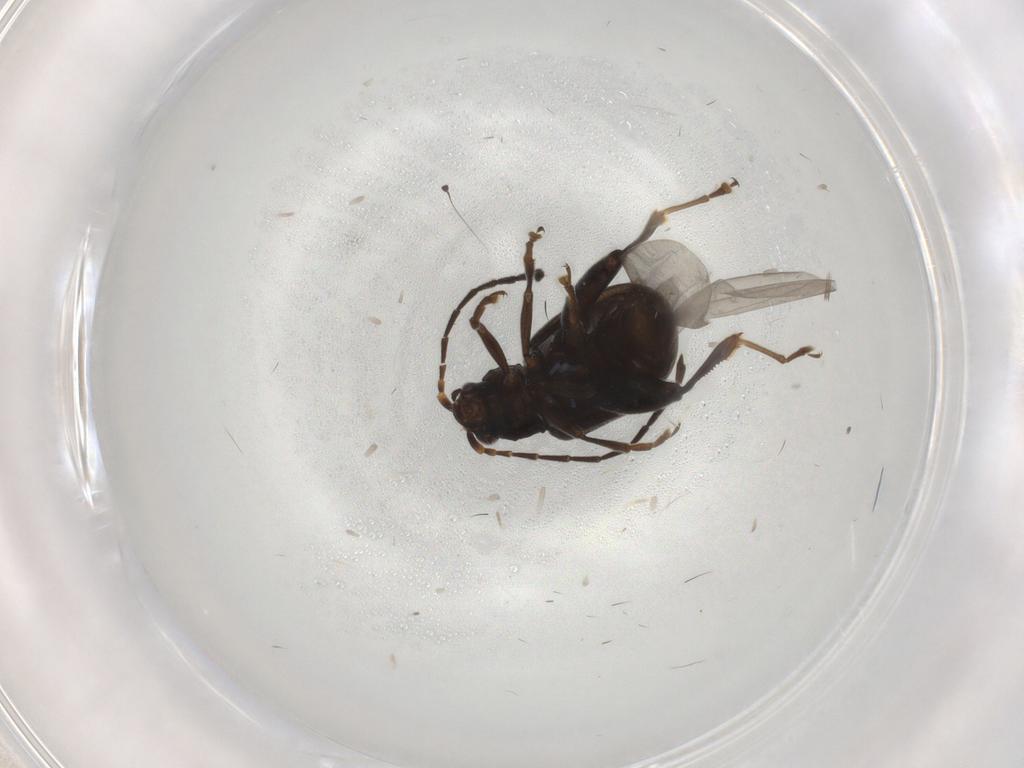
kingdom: Animalia
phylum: Arthropoda
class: Insecta
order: Coleoptera
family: Chrysomelidae
